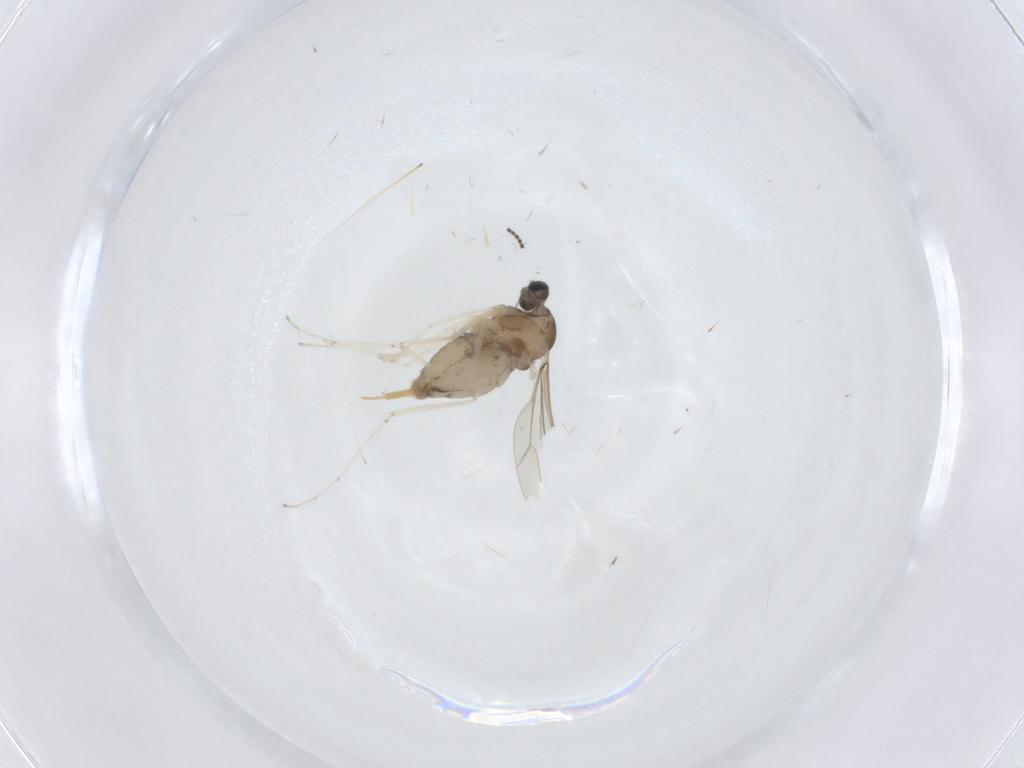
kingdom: Animalia
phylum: Arthropoda
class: Insecta
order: Diptera
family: Cecidomyiidae
